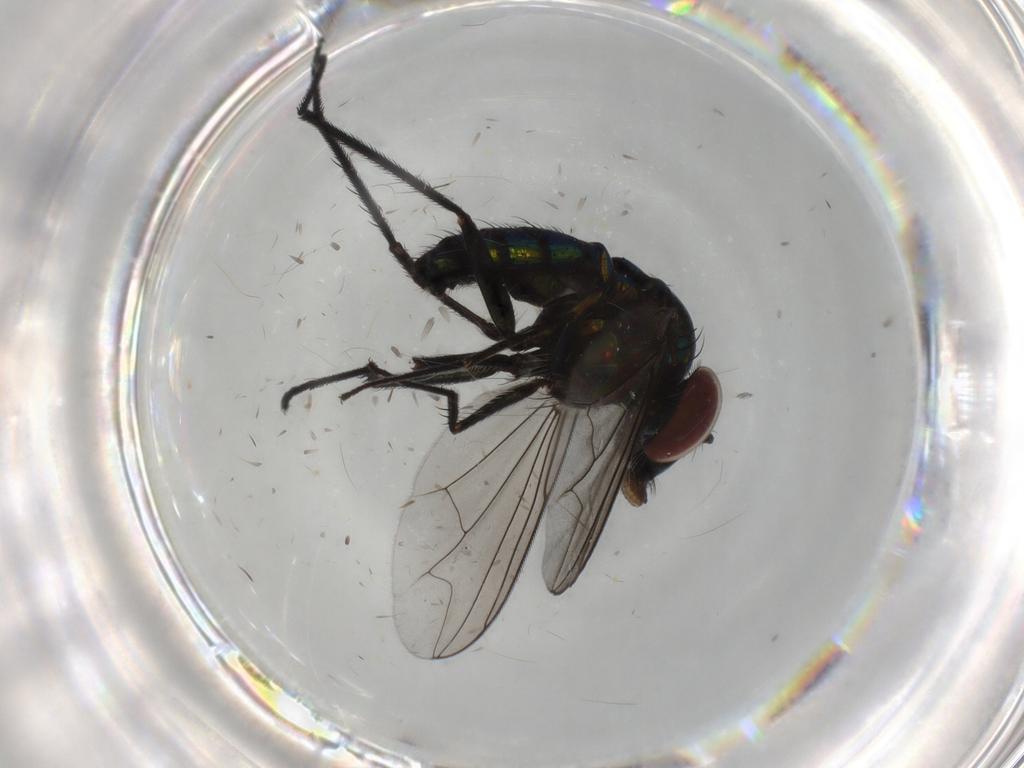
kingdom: Animalia
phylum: Arthropoda
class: Insecta
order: Diptera
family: Dolichopodidae
